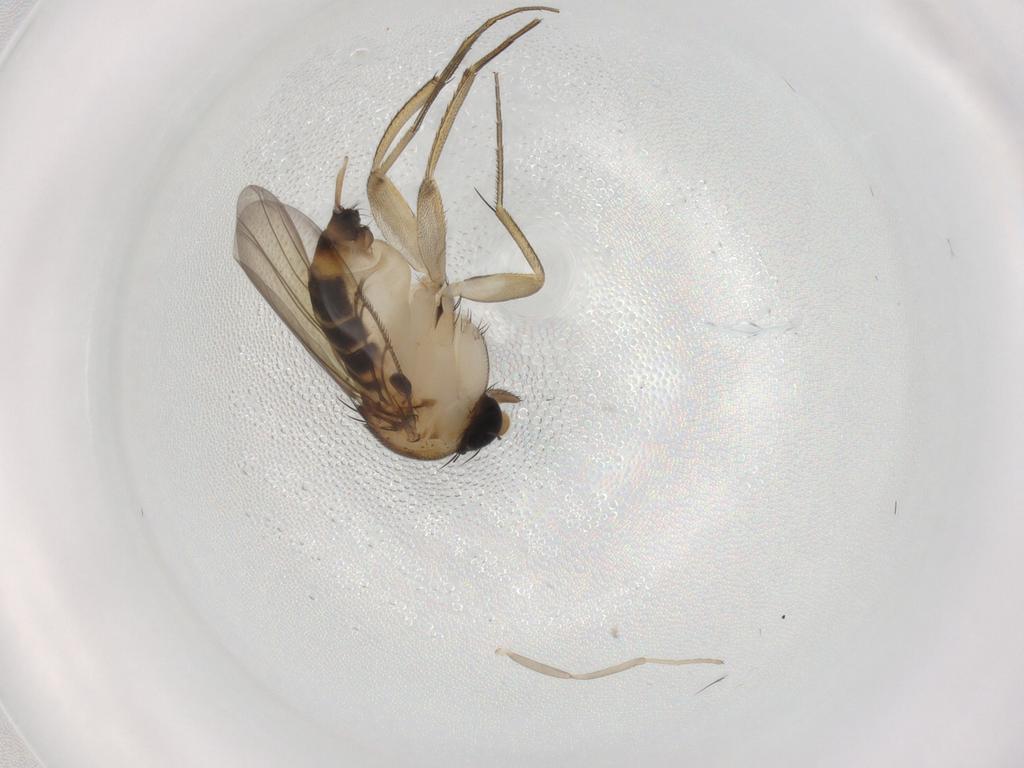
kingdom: Animalia
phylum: Arthropoda
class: Insecta
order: Diptera
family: Phoridae
